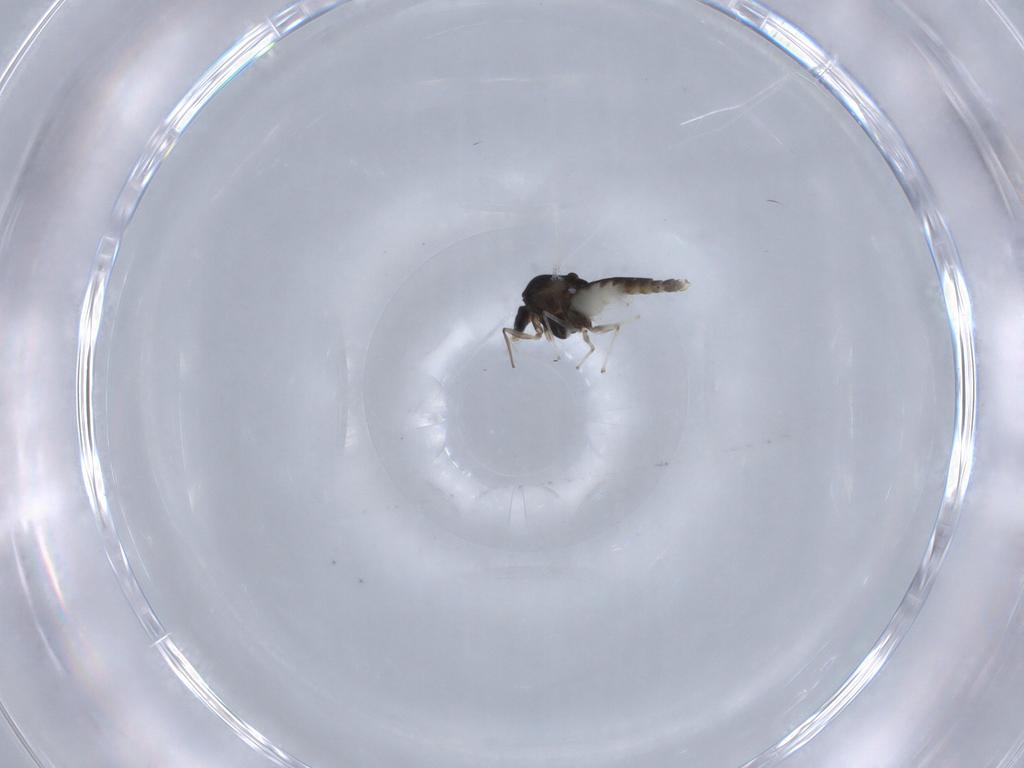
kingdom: Animalia
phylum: Arthropoda
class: Insecta
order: Diptera
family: Chironomidae
